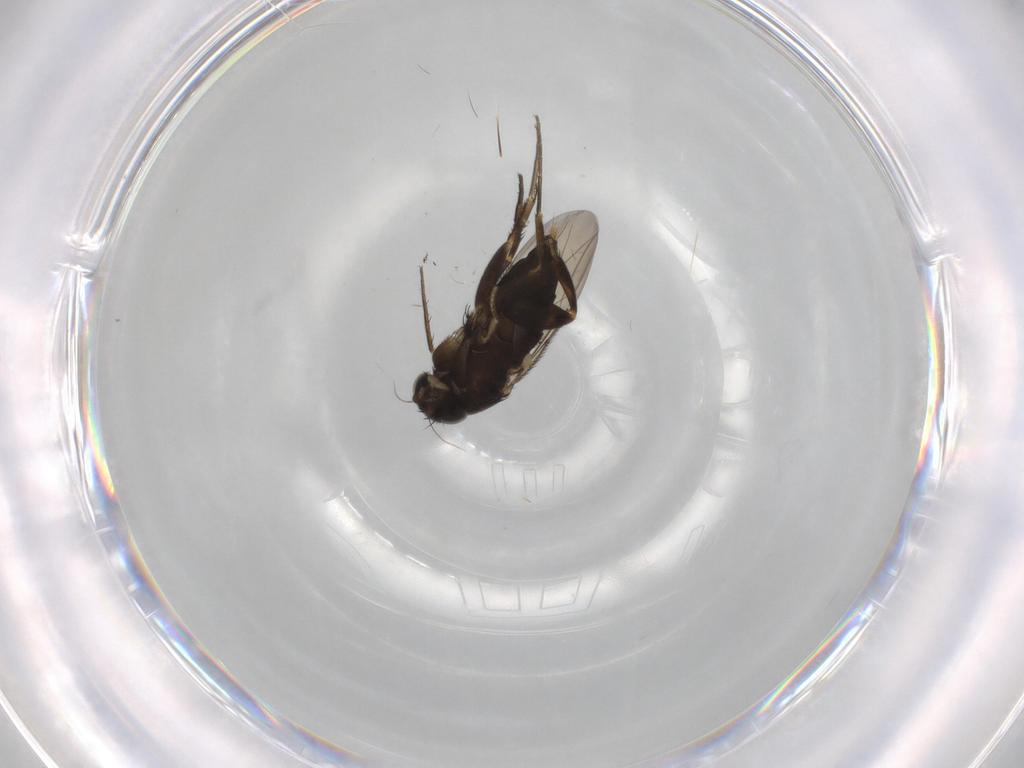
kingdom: Animalia
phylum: Arthropoda
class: Insecta
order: Diptera
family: Phoridae
